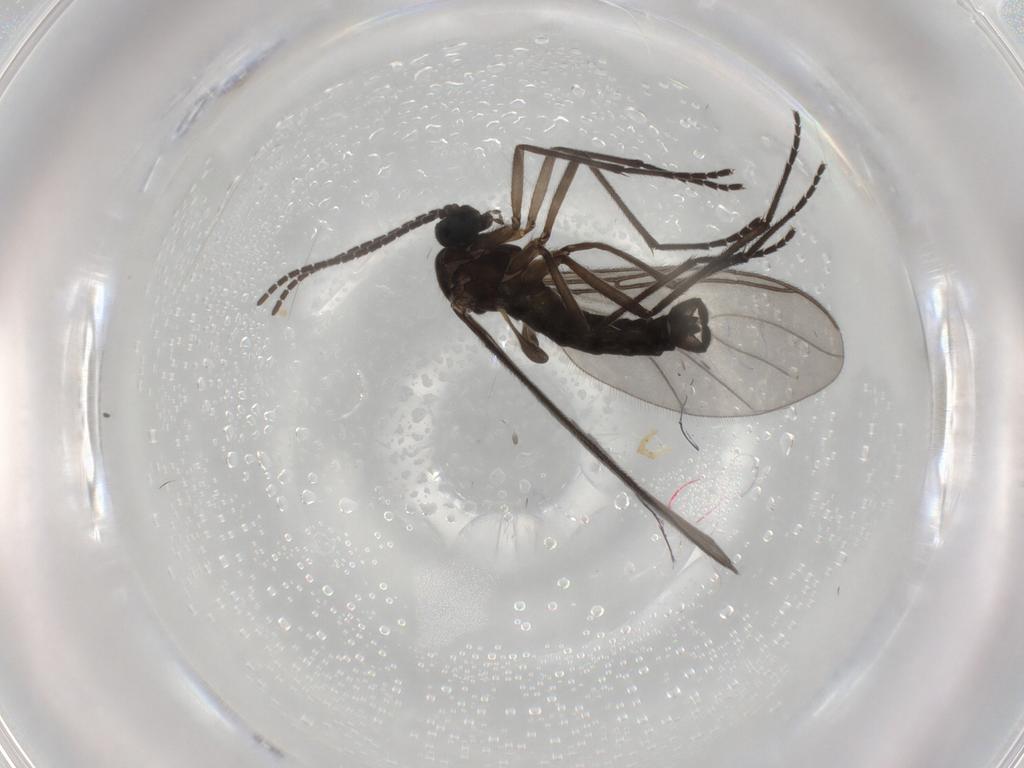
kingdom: Animalia
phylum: Arthropoda
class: Insecta
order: Diptera
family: Sciaridae
